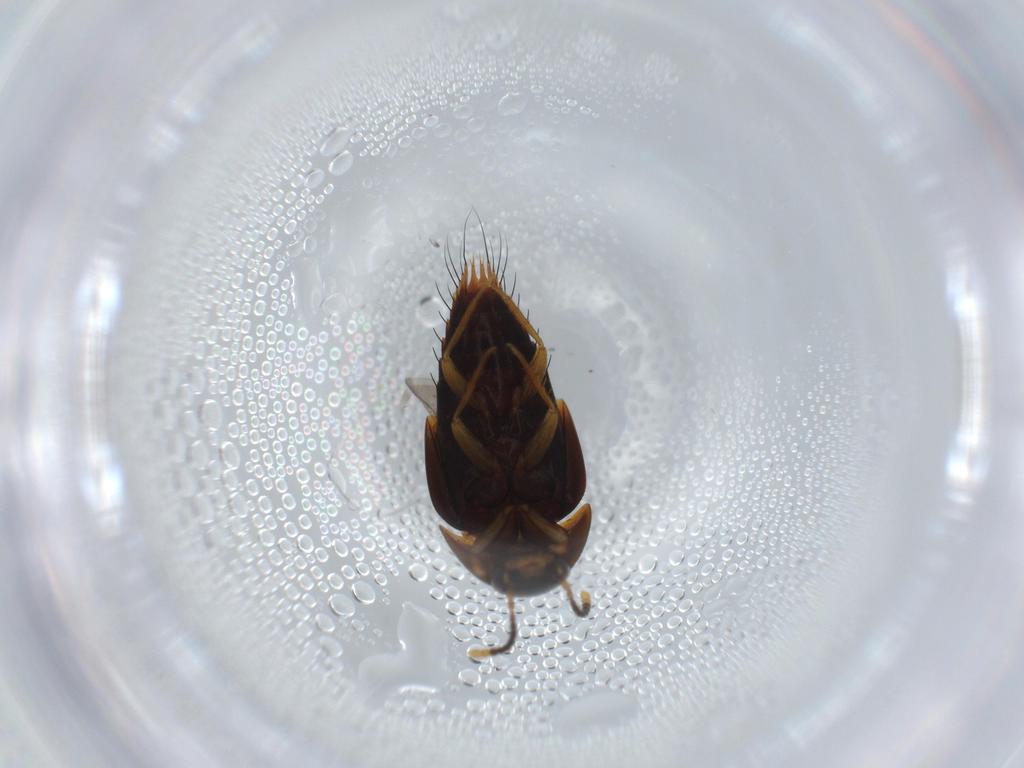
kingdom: Animalia
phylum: Arthropoda
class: Insecta
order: Coleoptera
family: Staphylinidae
